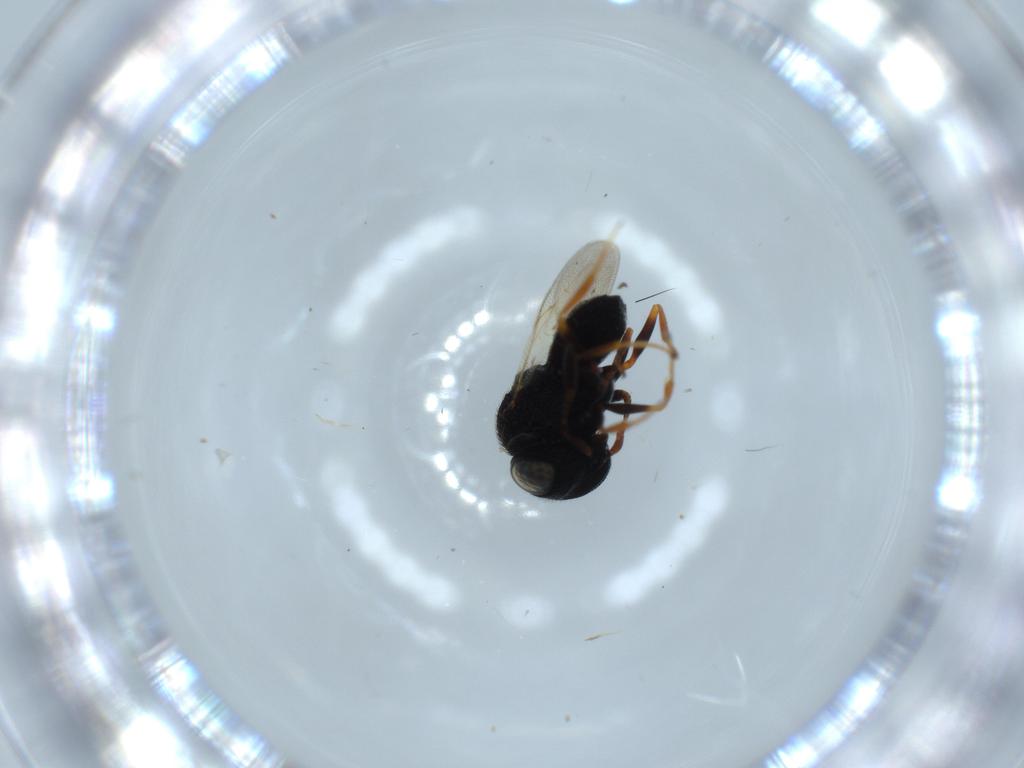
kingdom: Animalia
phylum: Arthropoda
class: Insecta
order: Hymenoptera
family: Scelionidae
